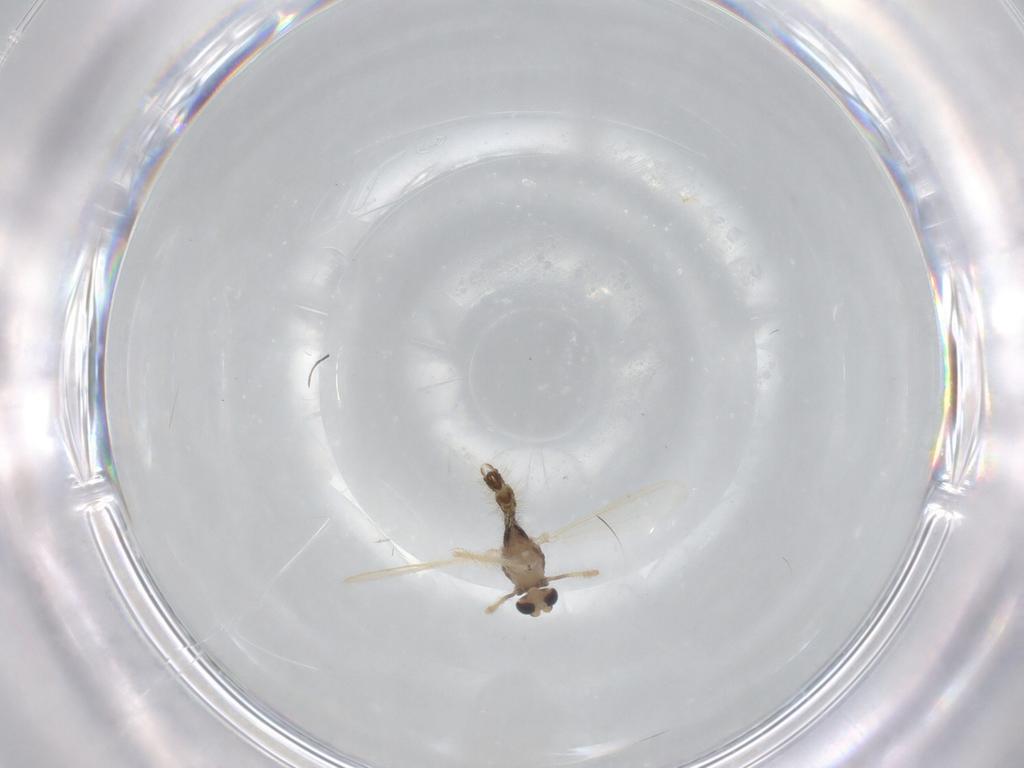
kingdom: Animalia
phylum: Arthropoda
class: Insecta
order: Diptera
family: Chironomidae
